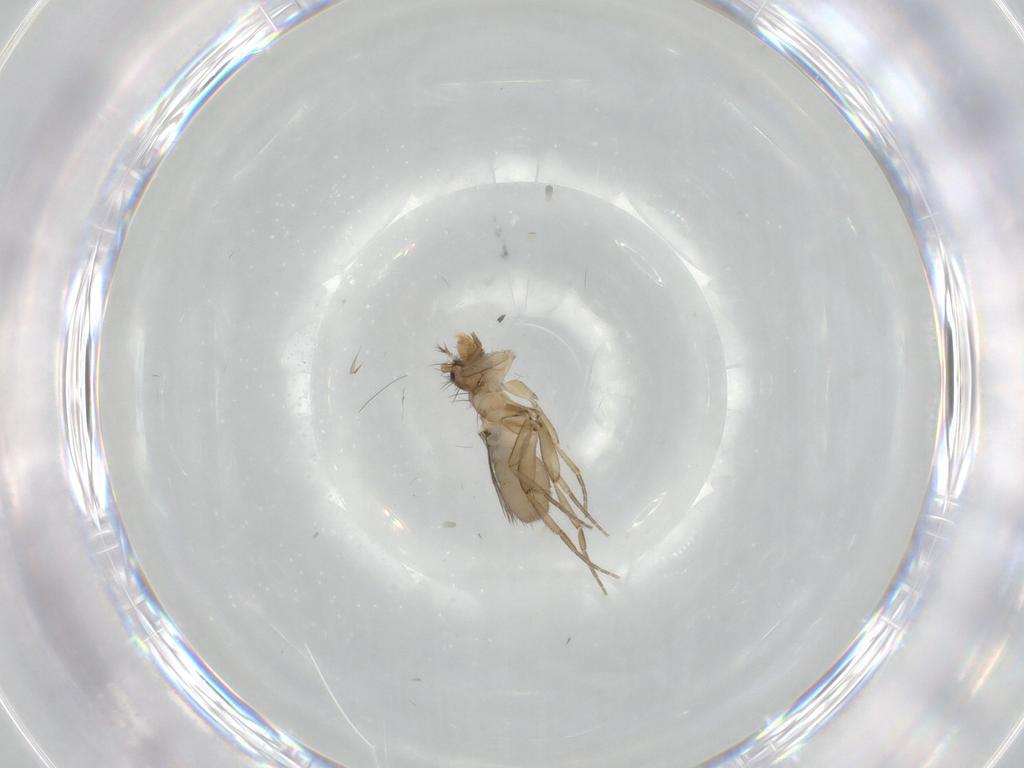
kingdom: Animalia
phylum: Arthropoda
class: Insecta
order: Diptera
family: Phoridae
